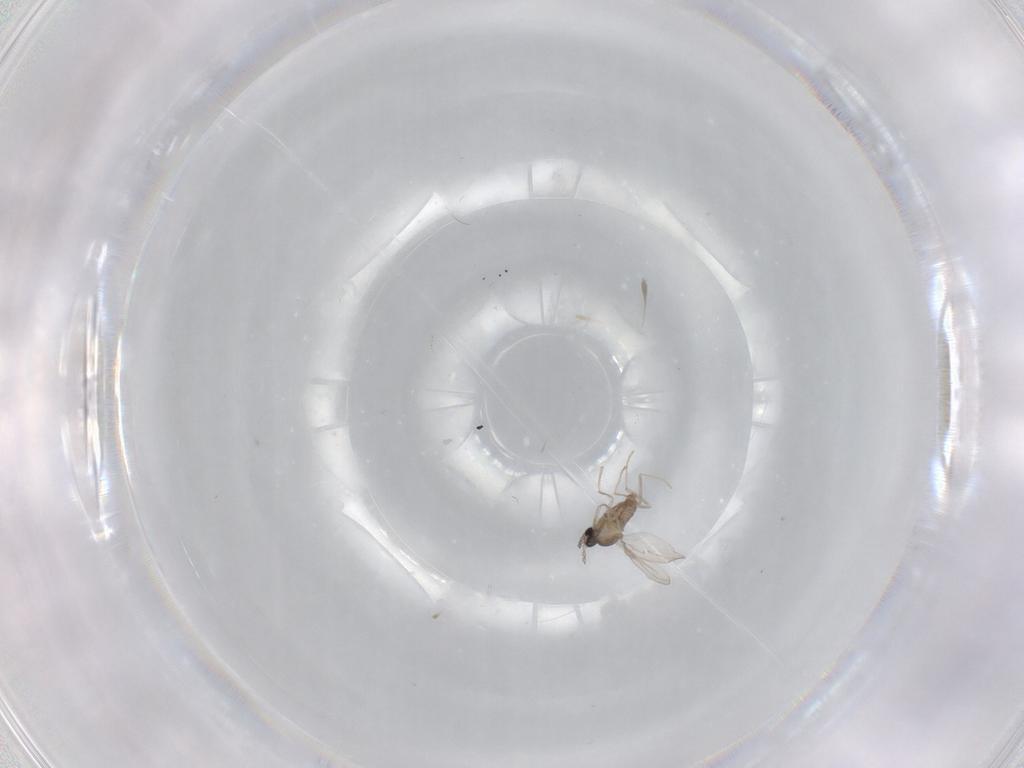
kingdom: Animalia
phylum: Arthropoda
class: Insecta
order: Diptera
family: Cecidomyiidae
